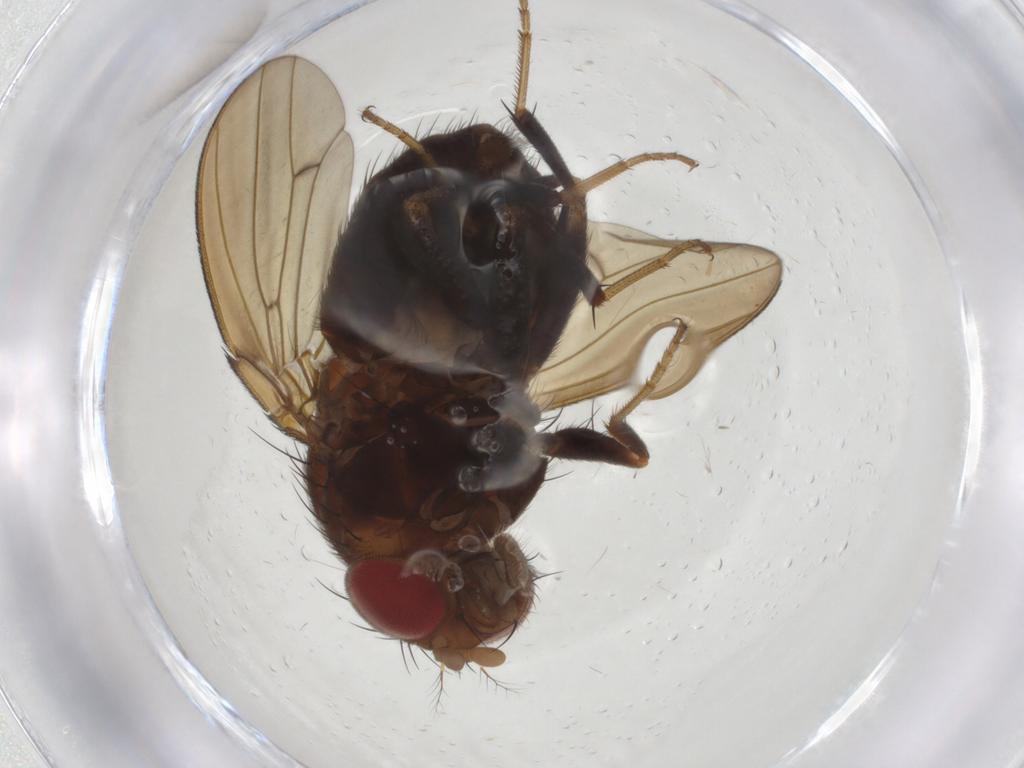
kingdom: Animalia
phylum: Arthropoda
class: Insecta
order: Diptera
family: Drosophilidae
